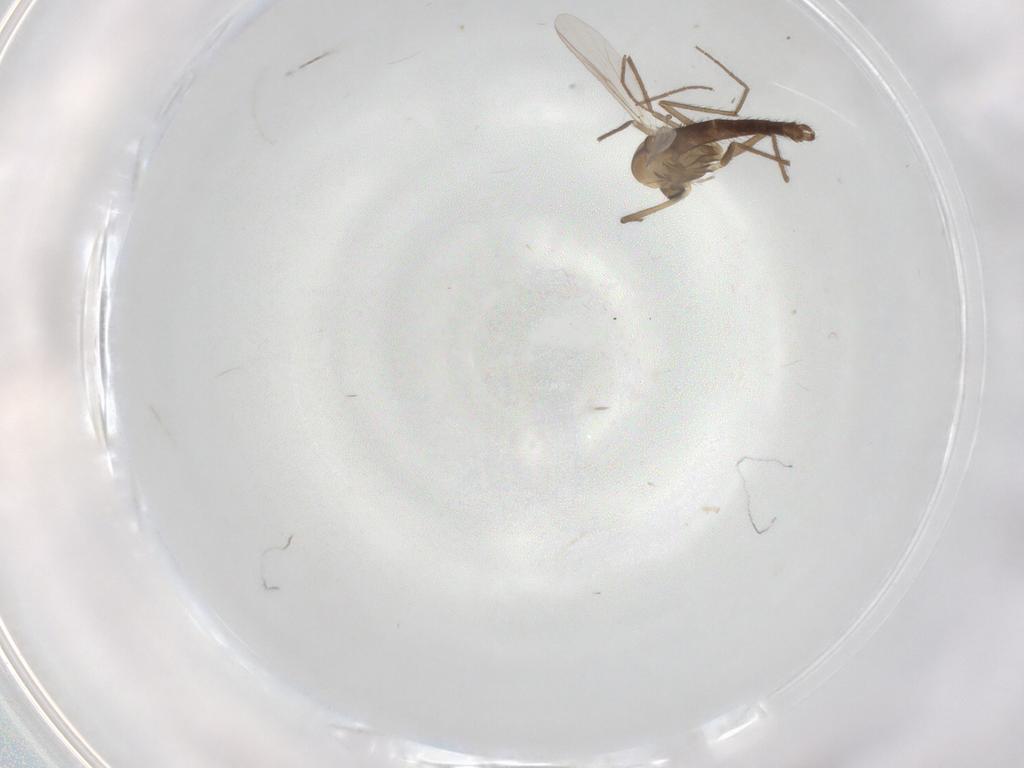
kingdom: Animalia
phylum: Arthropoda
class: Insecta
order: Diptera
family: Chironomidae
